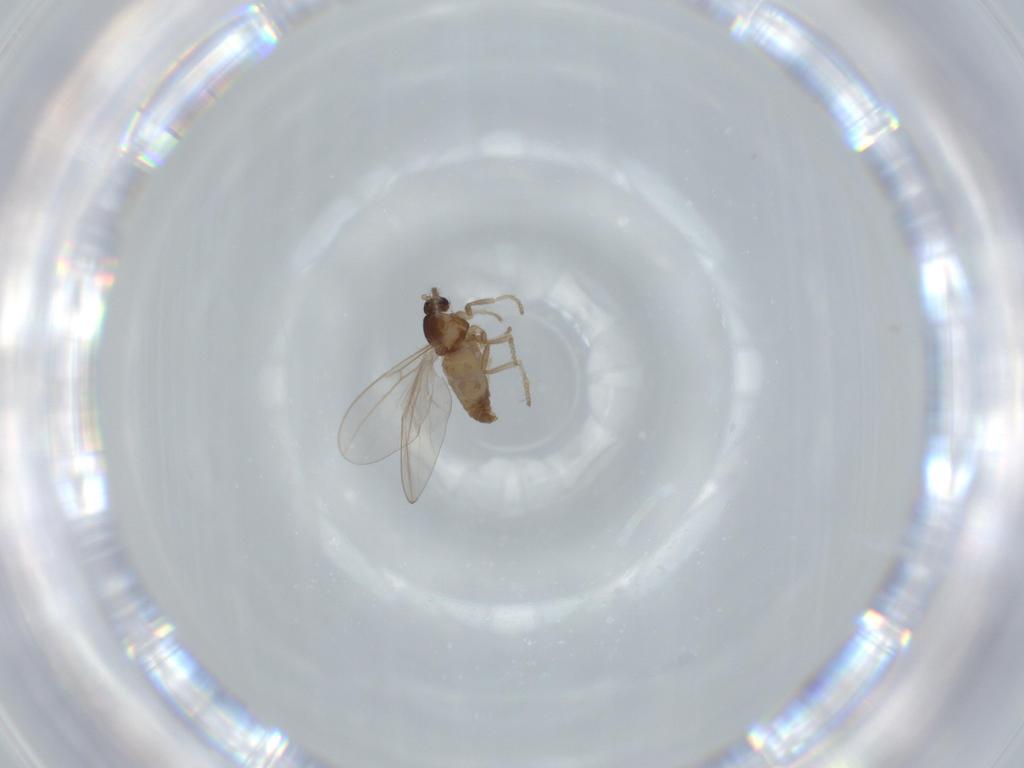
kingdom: Animalia
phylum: Arthropoda
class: Insecta
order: Diptera
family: Cecidomyiidae
